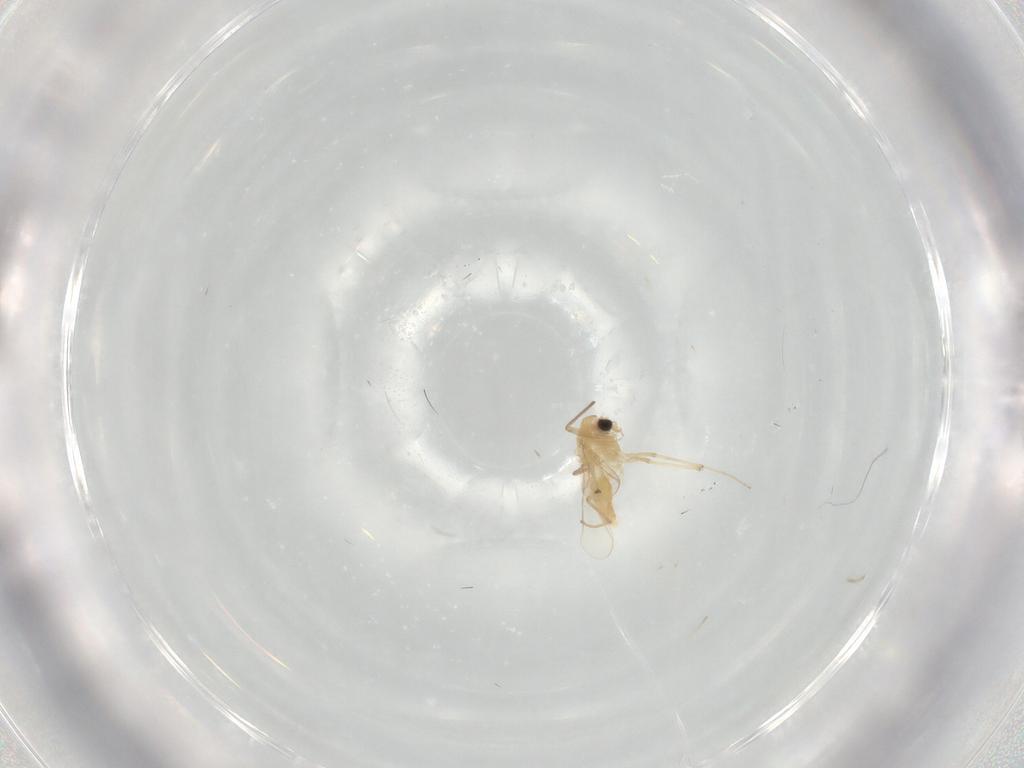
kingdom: Animalia
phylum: Arthropoda
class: Insecta
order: Diptera
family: Chironomidae
